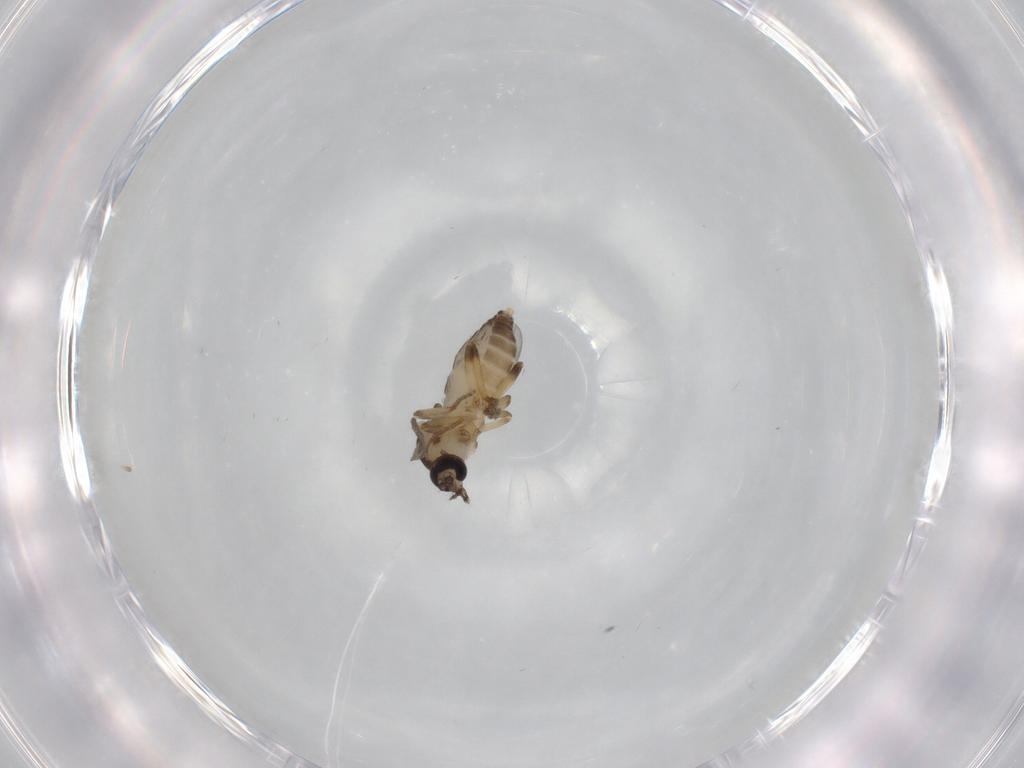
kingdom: Animalia
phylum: Arthropoda
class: Insecta
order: Diptera
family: Ceratopogonidae
